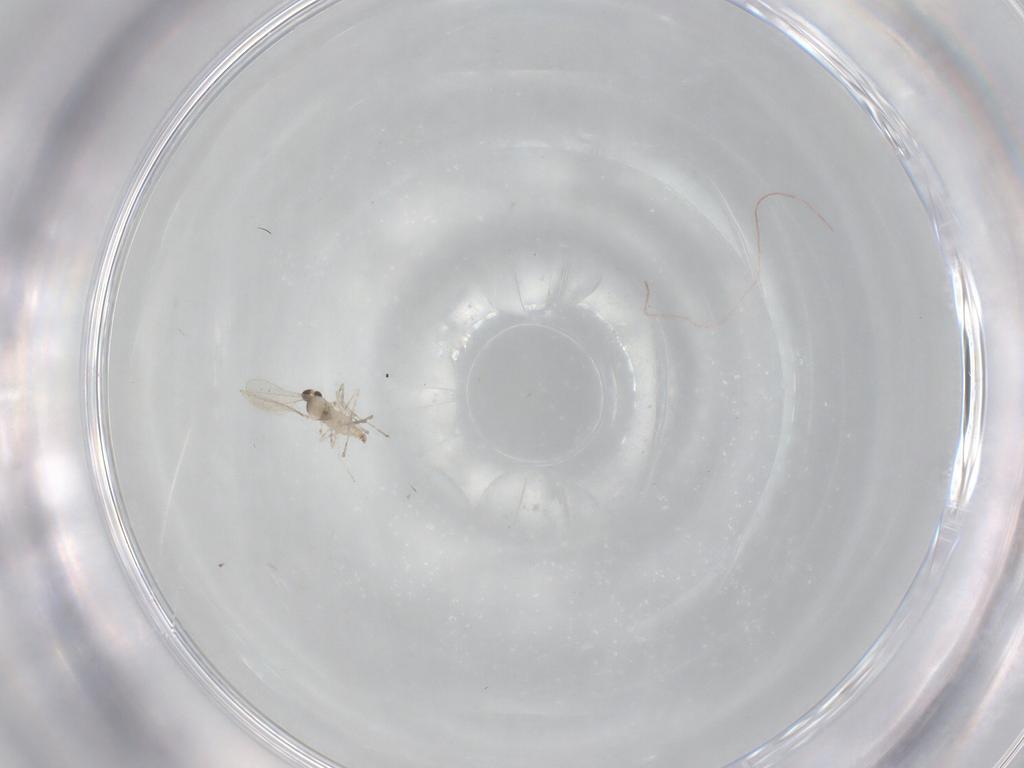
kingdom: Animalia
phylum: Arthropoda
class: Insecta
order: Diptera
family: Cecidomyiidae
